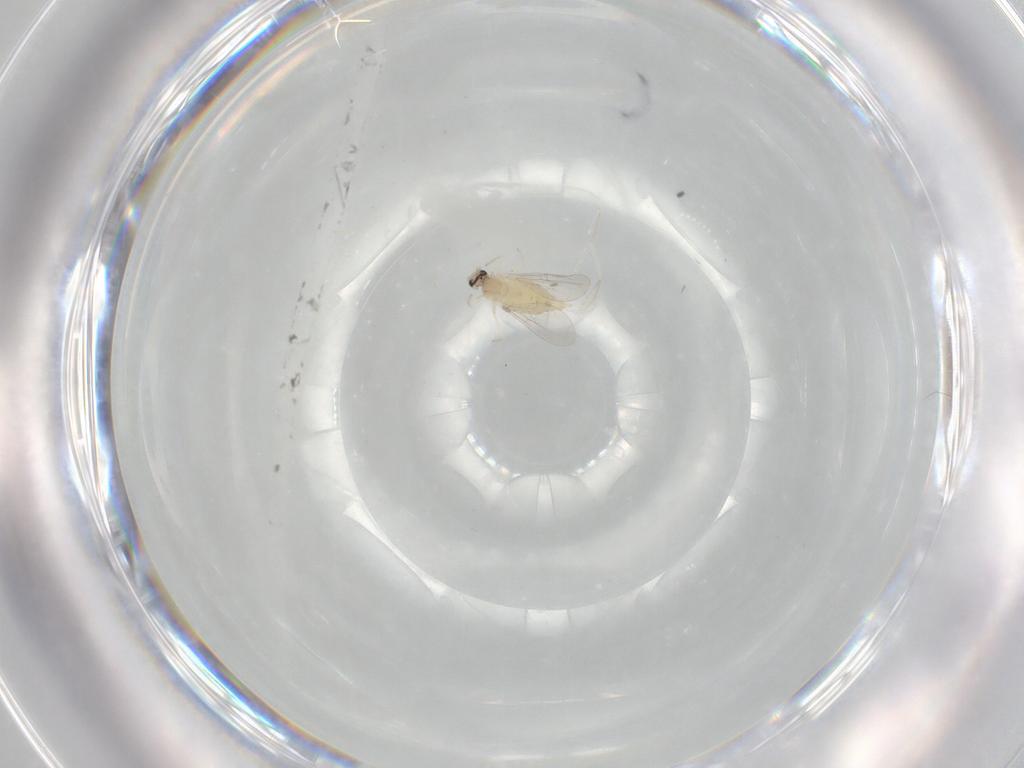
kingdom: Animalia
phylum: Arthropoda
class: Insecta
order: Diptera
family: Cecidomyiidae
